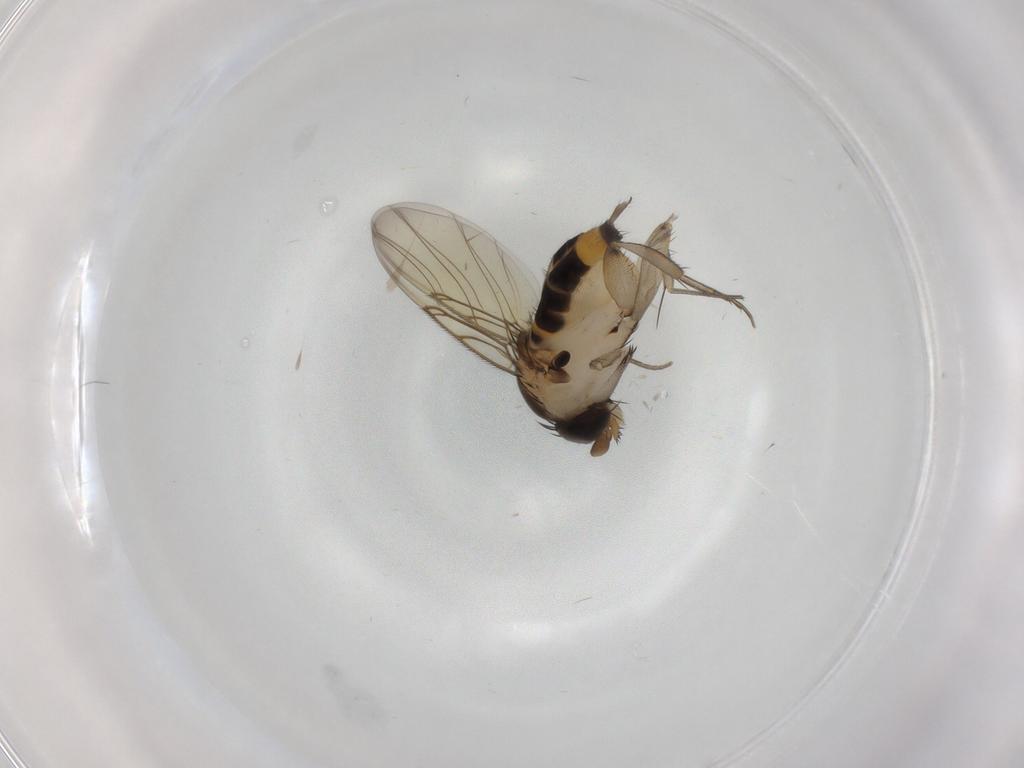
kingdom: Animalia
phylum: Arthropoda
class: Insecta
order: Diptera
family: Phoridae
